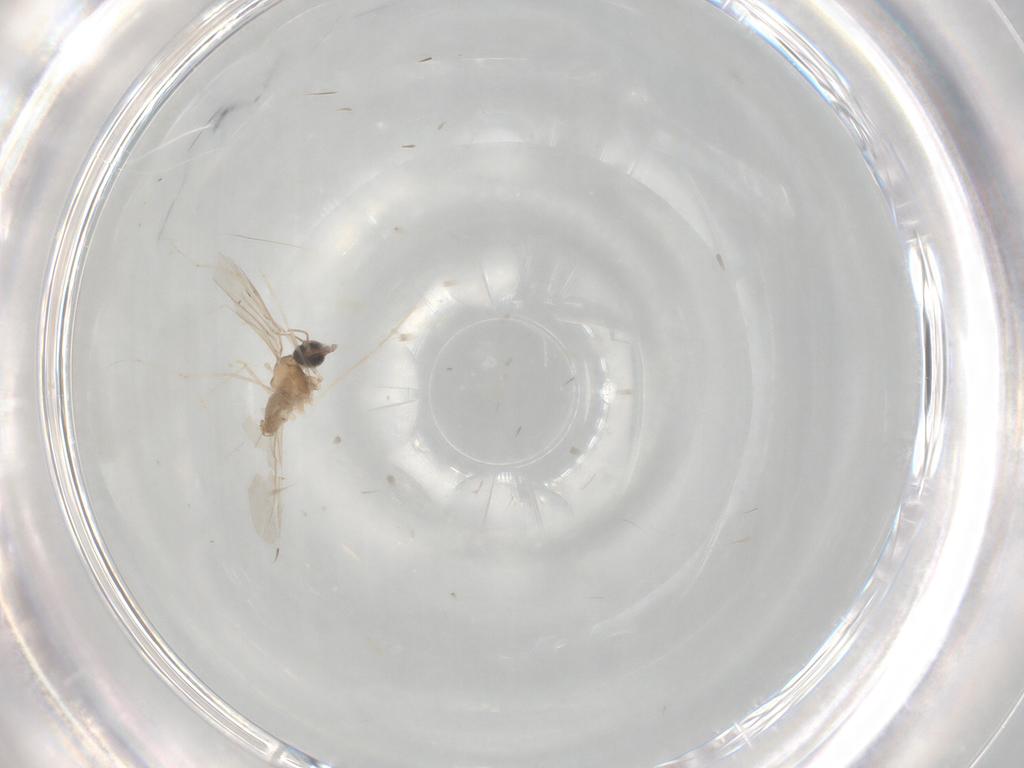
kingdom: Animalia
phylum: Arthropoda
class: Insecta
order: Diptera
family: Cecidomyiidae
